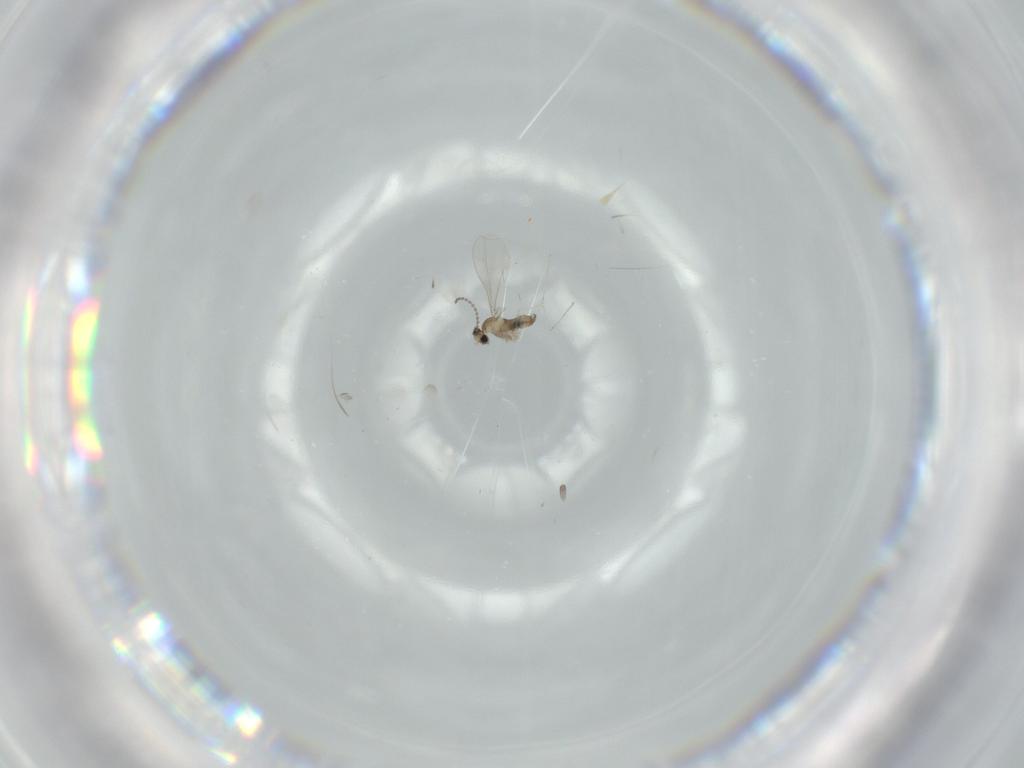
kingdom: Animalia
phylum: Arthropoda
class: Insecta
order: Diptera
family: Cecidomyiidae
